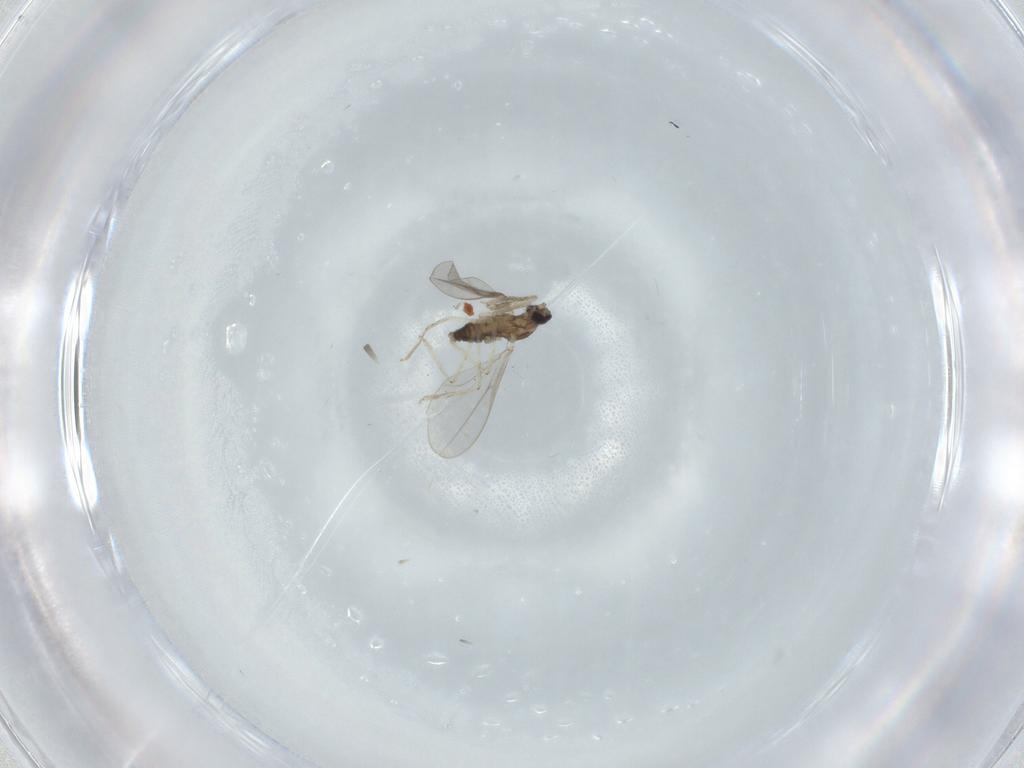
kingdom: Animalia
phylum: Arthropoda
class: Insecta
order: Diptera
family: Cecidomyiidae
